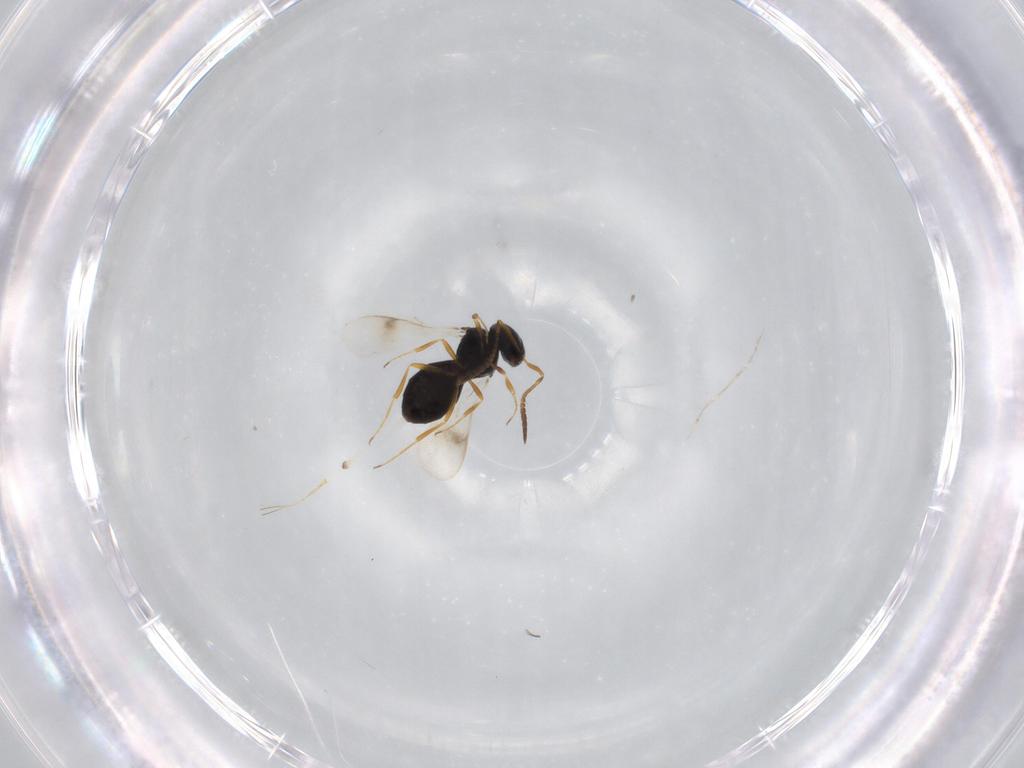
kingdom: Animalia
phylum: Arthropoda
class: Insecta
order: Hymenoptera
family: Scelionidae
